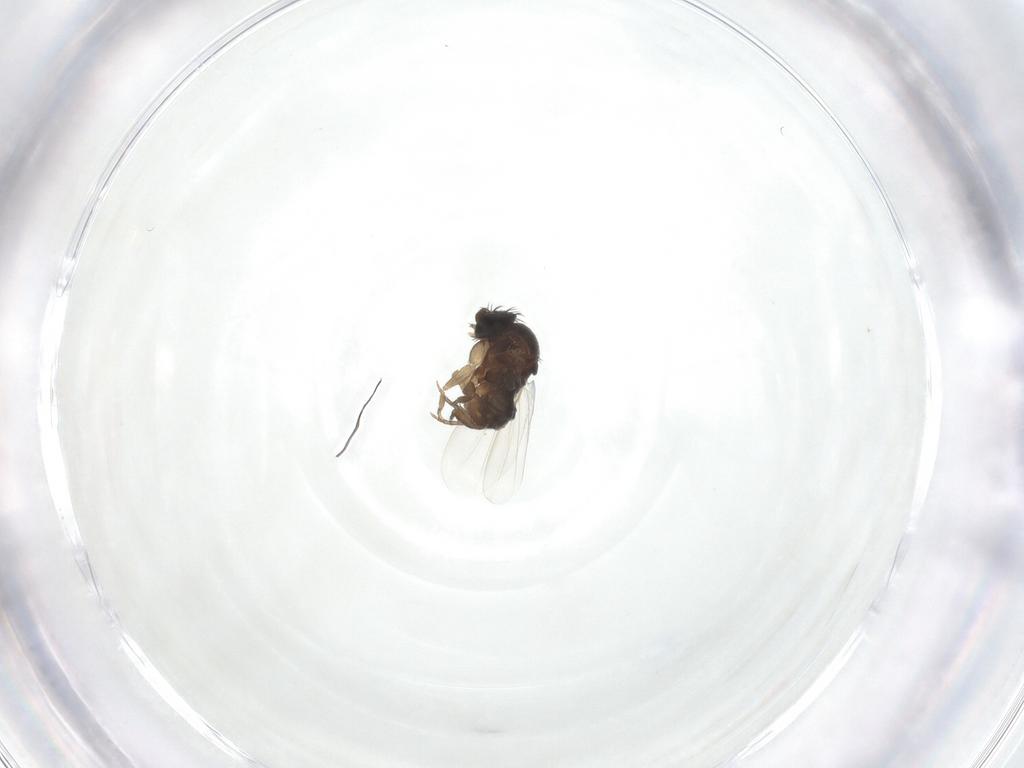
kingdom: Animalia
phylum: Arthropoda
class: Insecta
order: Diptera
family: Phoridae
